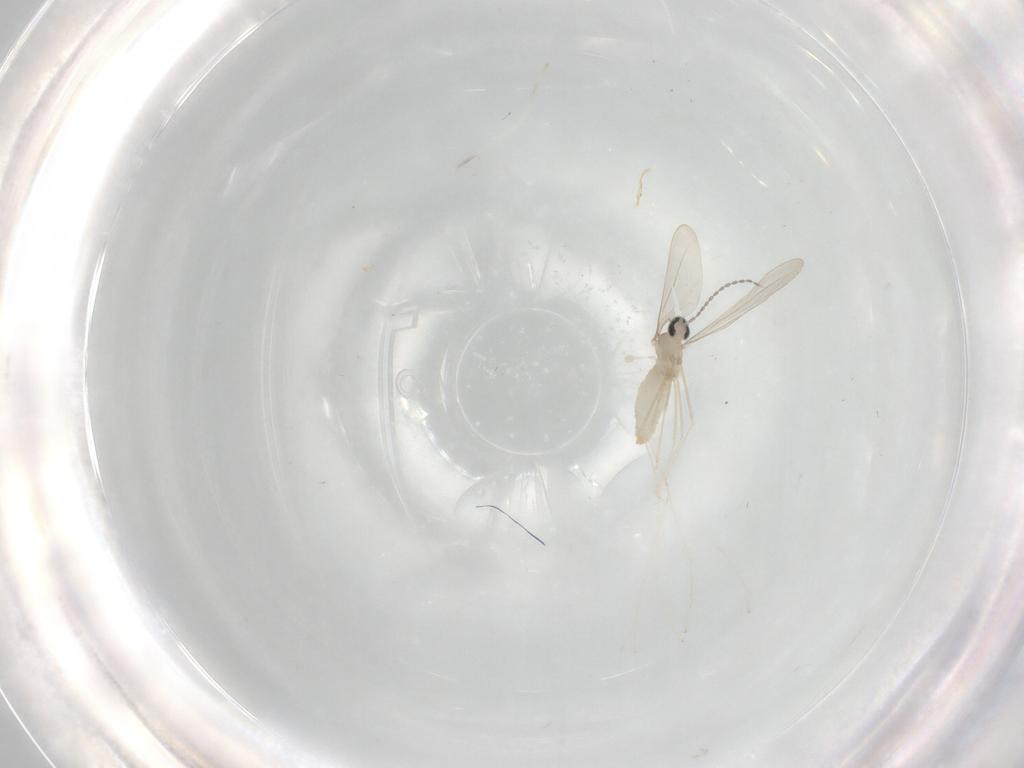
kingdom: Animalia
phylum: Arthropoda
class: Insecta
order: Diptera
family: Cecidomyiidae
